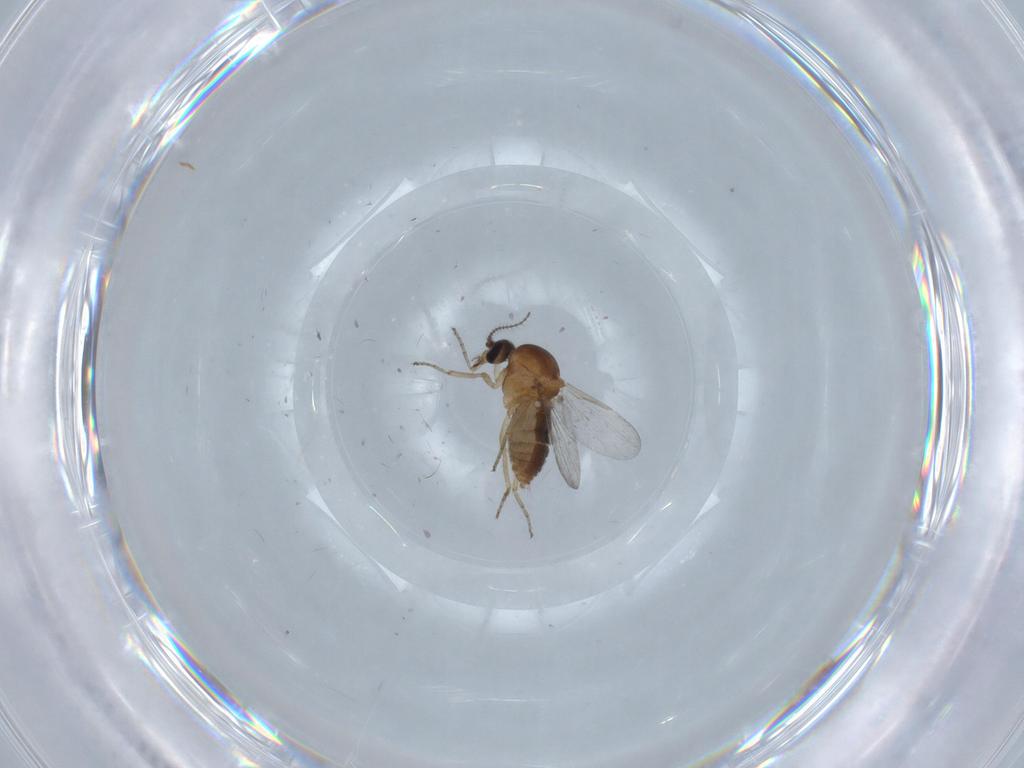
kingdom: Animalia
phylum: Arthropoda
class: Insecta
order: Diptera
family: Ceratopogonidae
